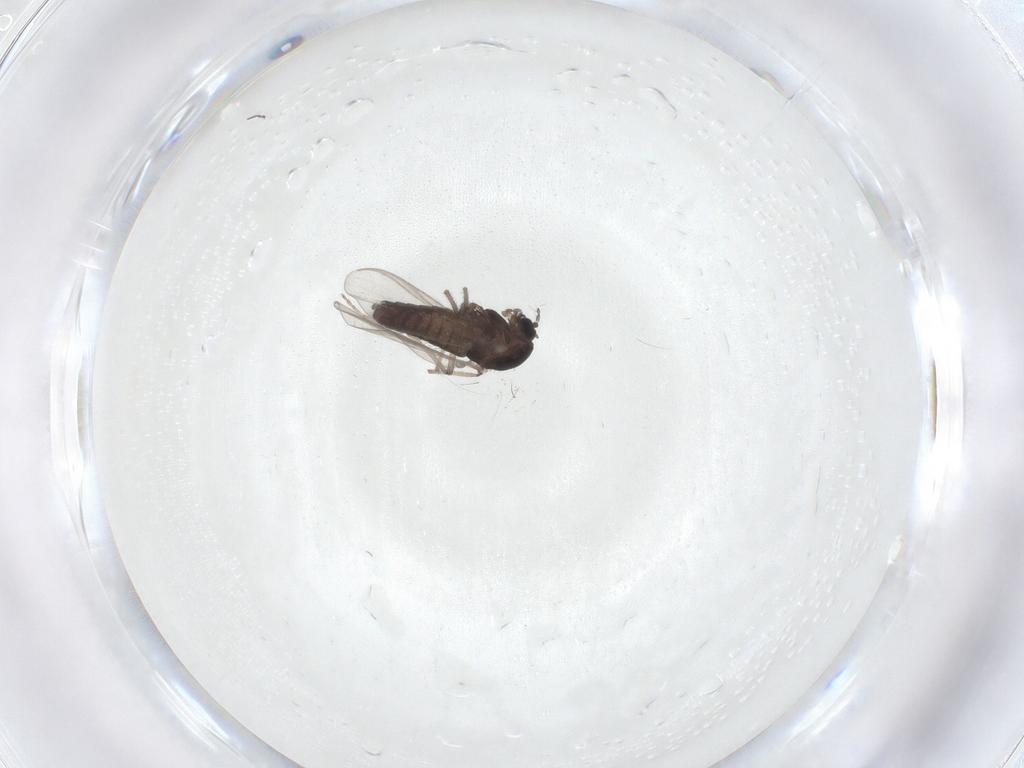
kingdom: Animalia
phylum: Arthropoda
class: Insecta
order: Diptera
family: Chironomidae
